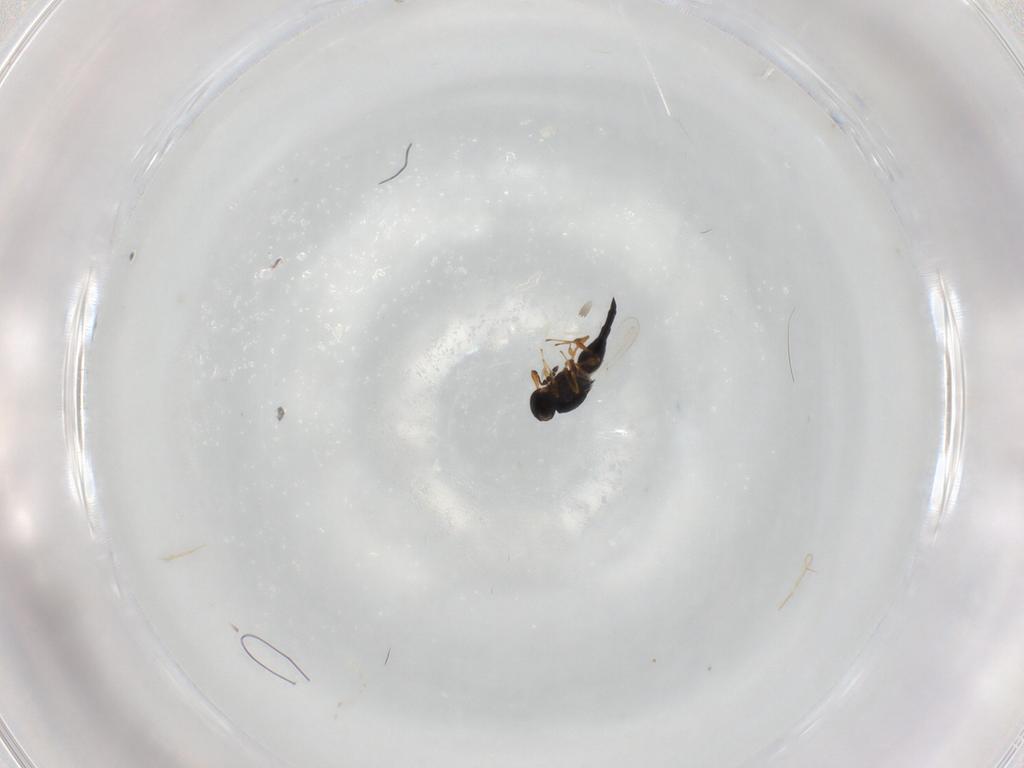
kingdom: Animalia
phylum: Arthropoda
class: Insecta
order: Hymenoptera
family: Platygastridae
